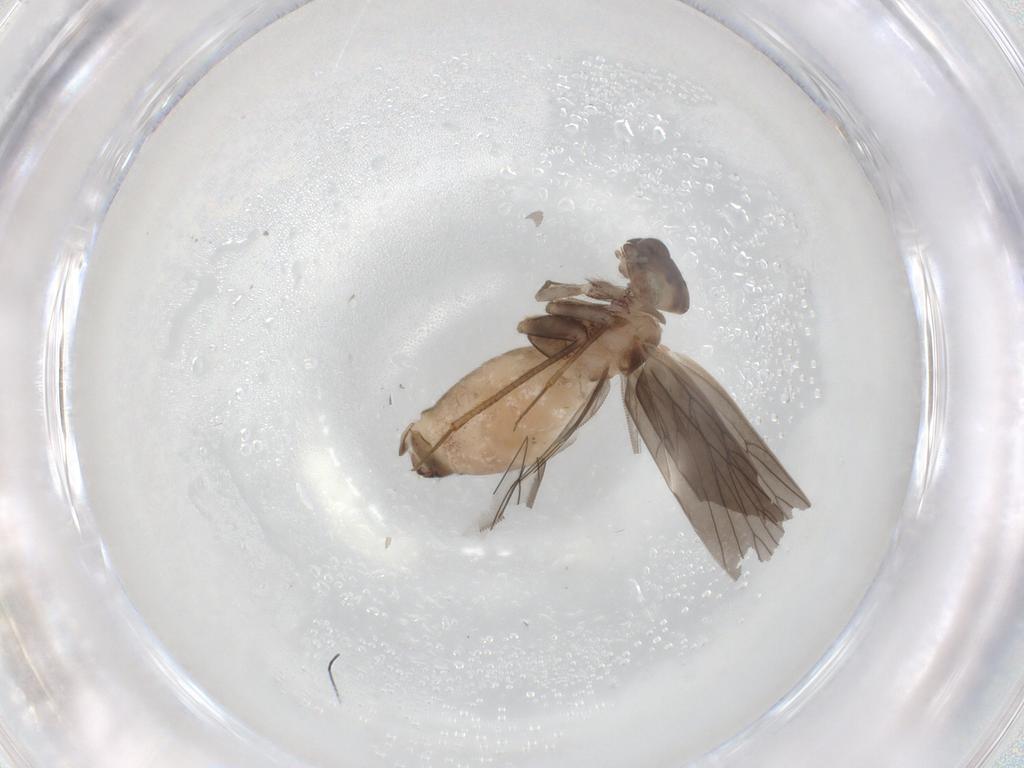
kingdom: Animalia
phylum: Arthropoda
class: Insecta
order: Psocodea
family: Lepidopsocidae
